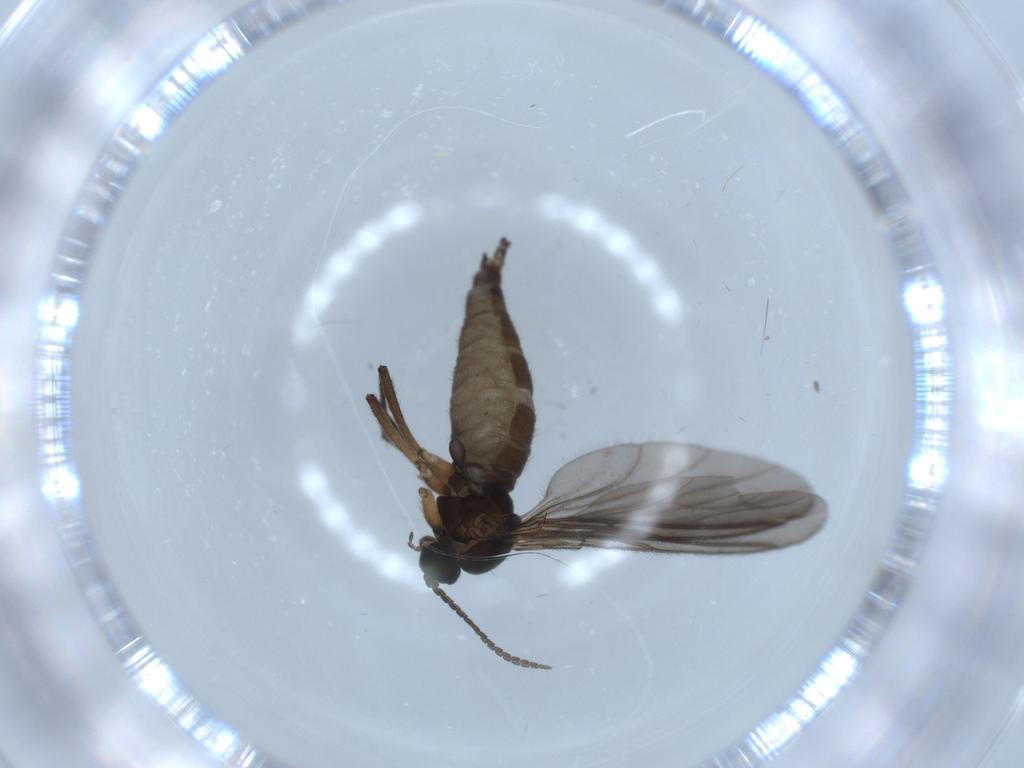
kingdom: Animalia
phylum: Arthropoda
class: Insecta
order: Diptera
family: Sciaridae
